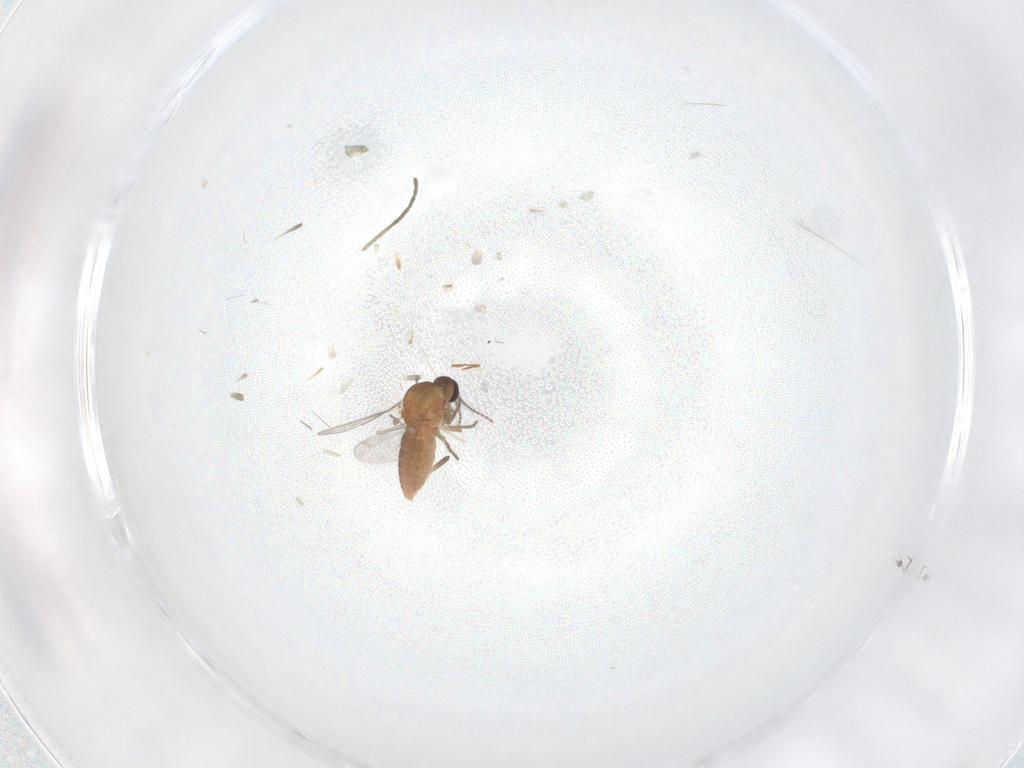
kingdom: Animalia
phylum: Arthropoda
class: Insecta
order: Diptera
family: Ceratopogonidae
